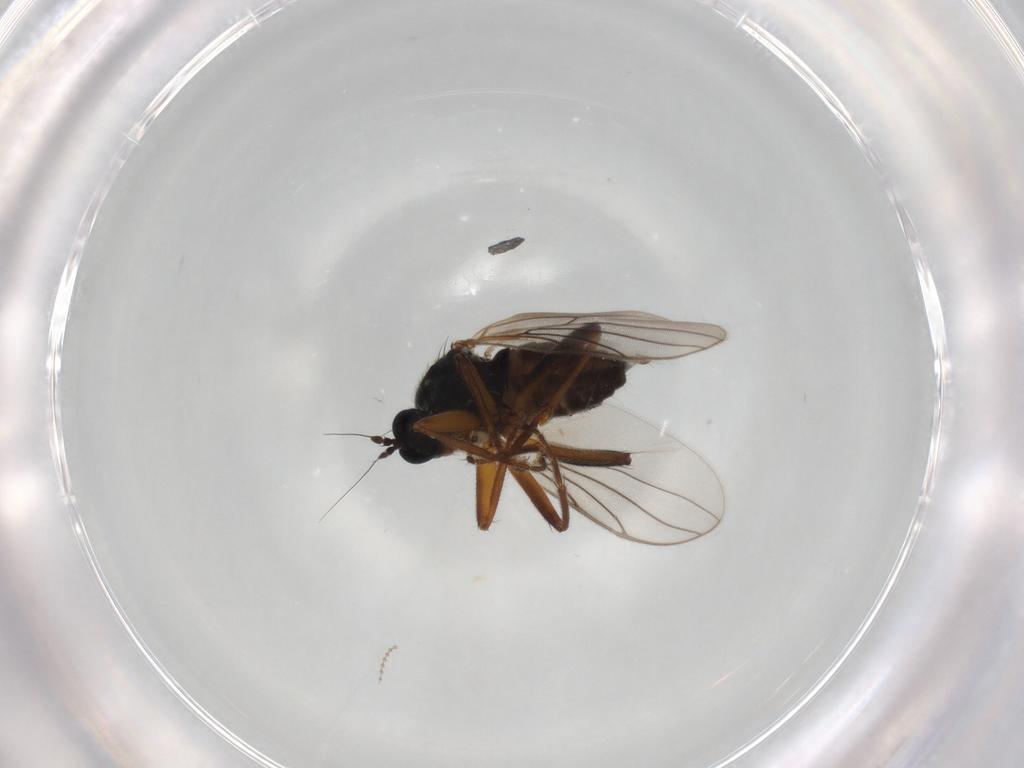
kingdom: Animalia
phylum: Arthropoda
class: Insecta
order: Diptera
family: Hybotidae
